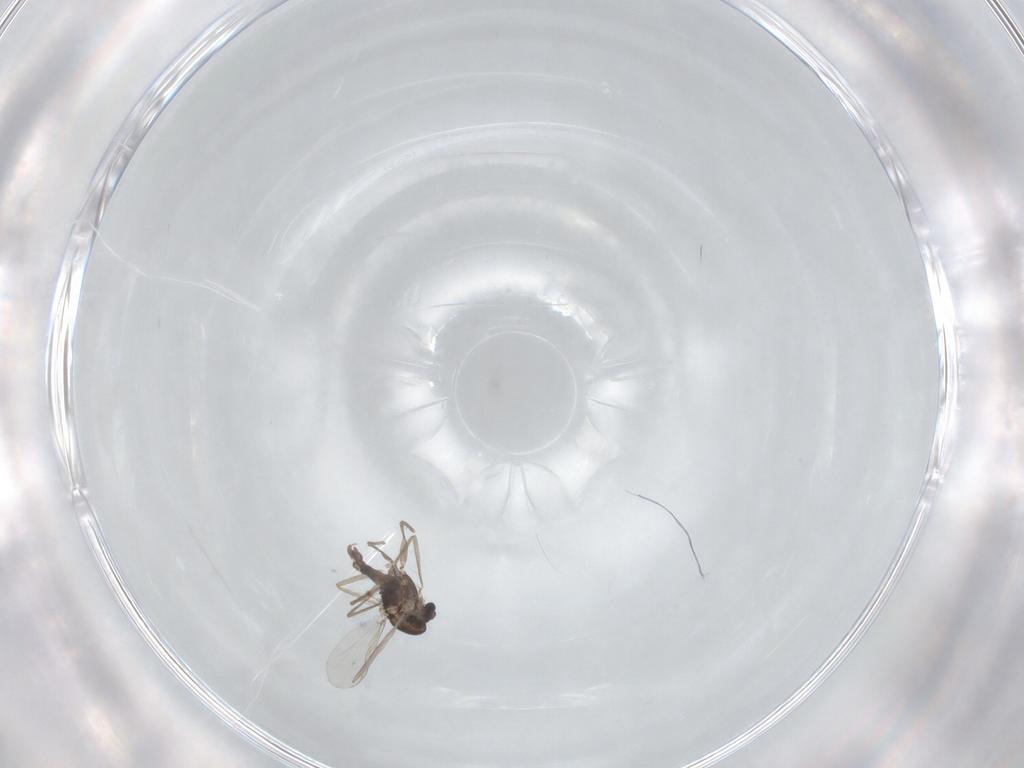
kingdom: Animalia
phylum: Arthropoda
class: Insecta
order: Diptera
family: Chironomidae
